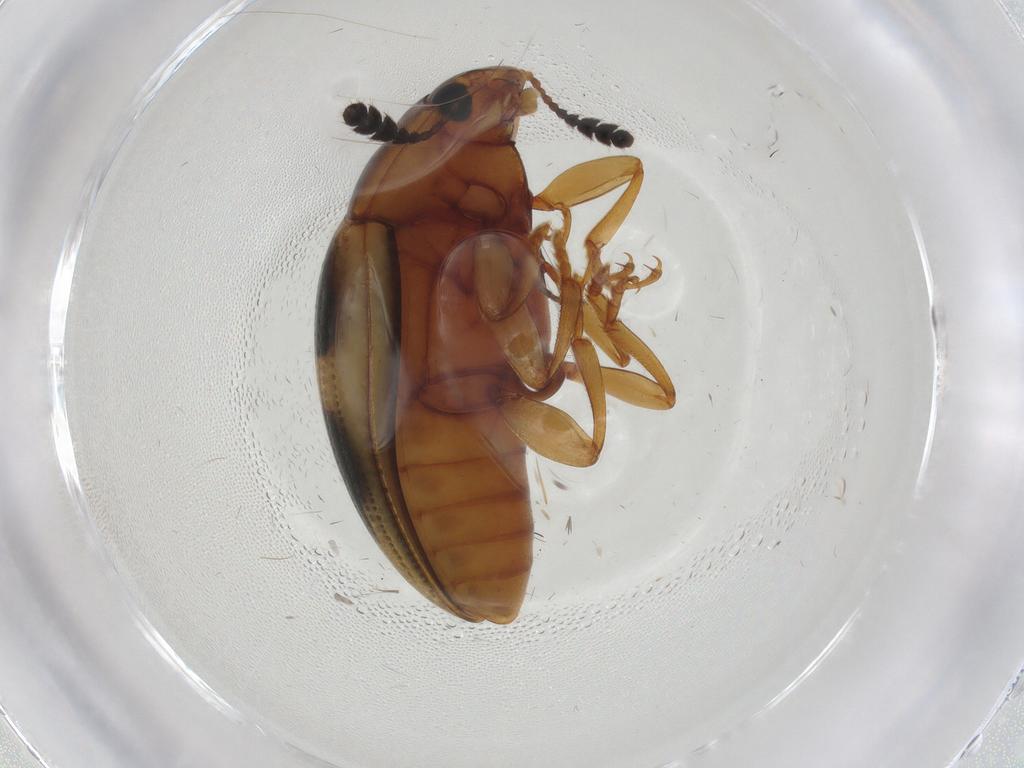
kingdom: Animalia
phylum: Arthropoda
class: Insecta
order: Coleoptera
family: Erotylidae
